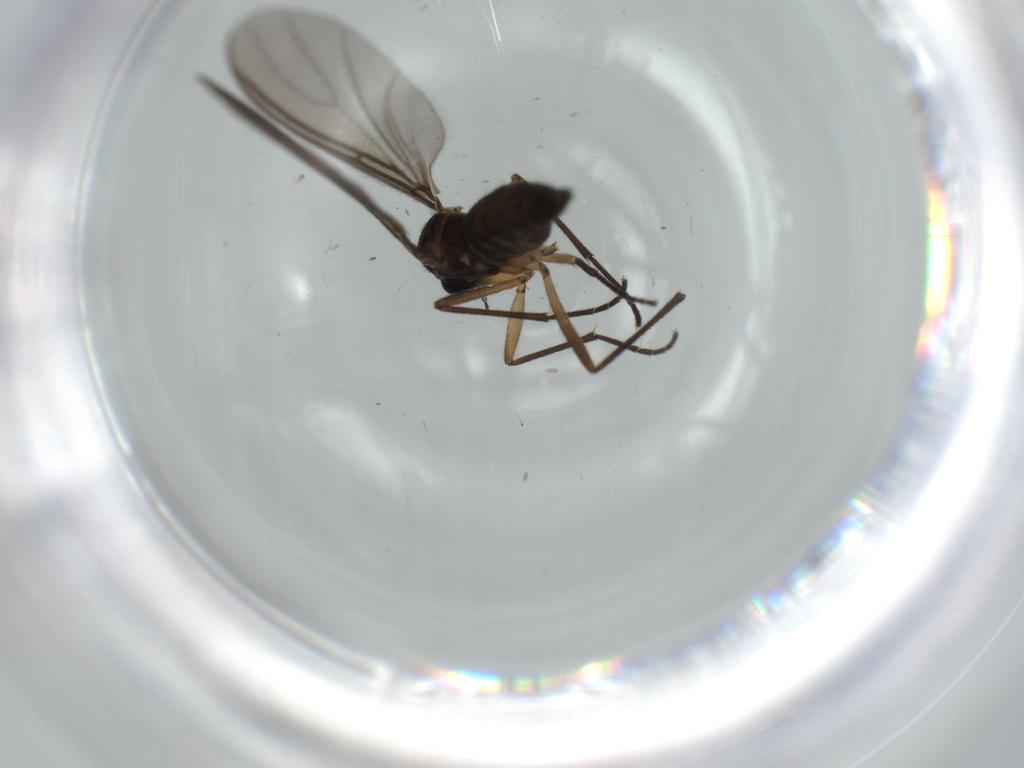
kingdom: Animalia
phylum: Arthropoda
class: Insecta
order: Diptera
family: Sciaridae
